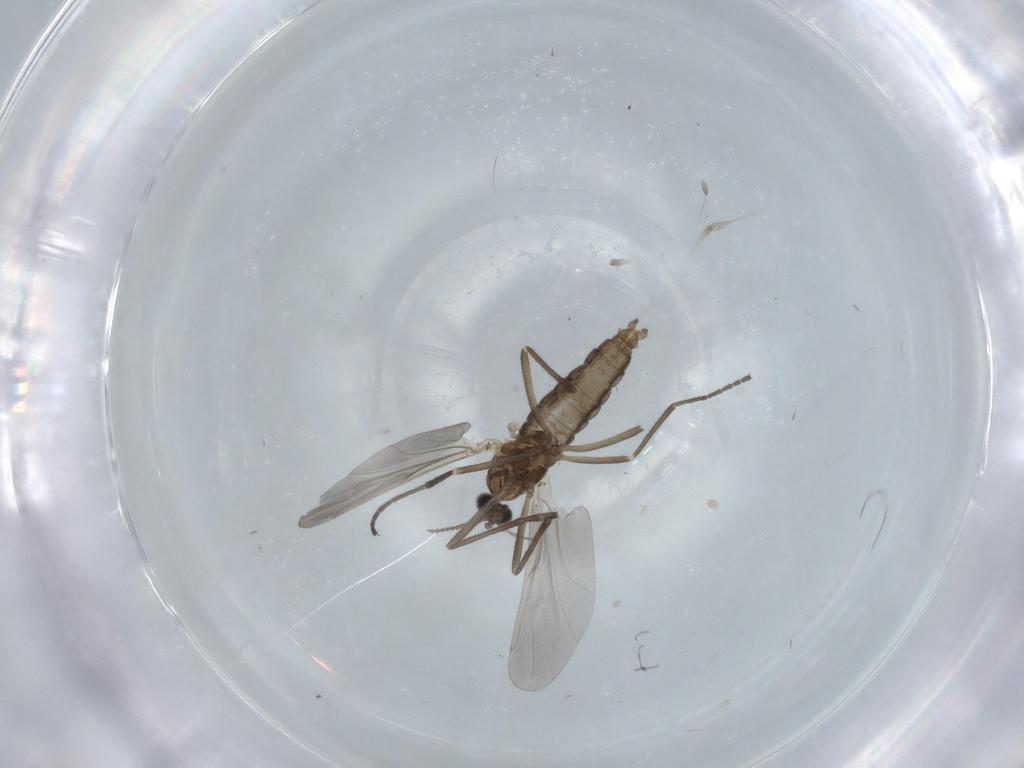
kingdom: Animalia
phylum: Arthropoda
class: Insecta
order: Diptera
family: Cecidomyiidae
